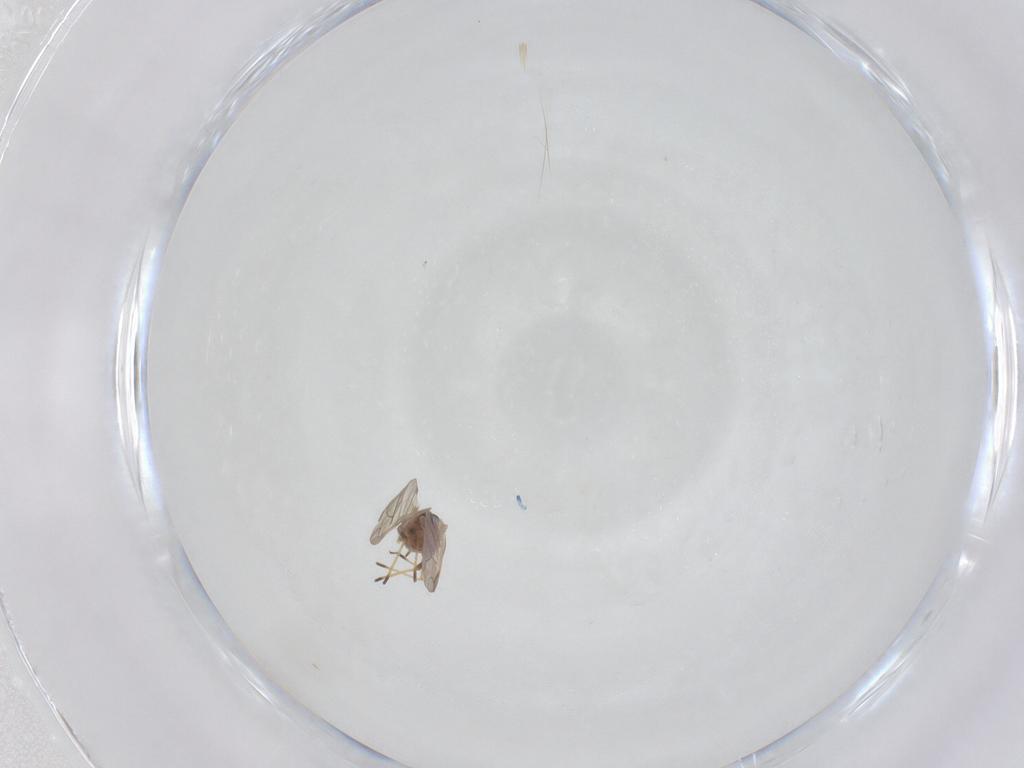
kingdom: Animalia
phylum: Arthropoda
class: Insecta
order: Hemiptera
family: Aphididae
